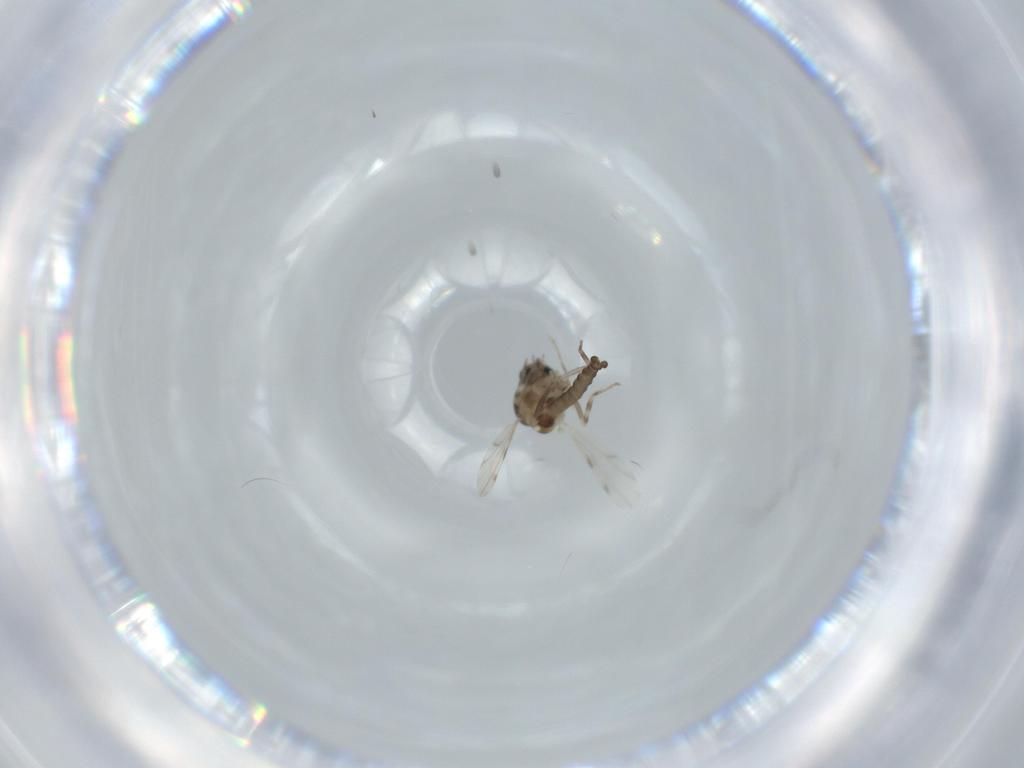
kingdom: Animalia
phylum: Arthropoda
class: Insecta
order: Diptera
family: Ceratopogonidae
